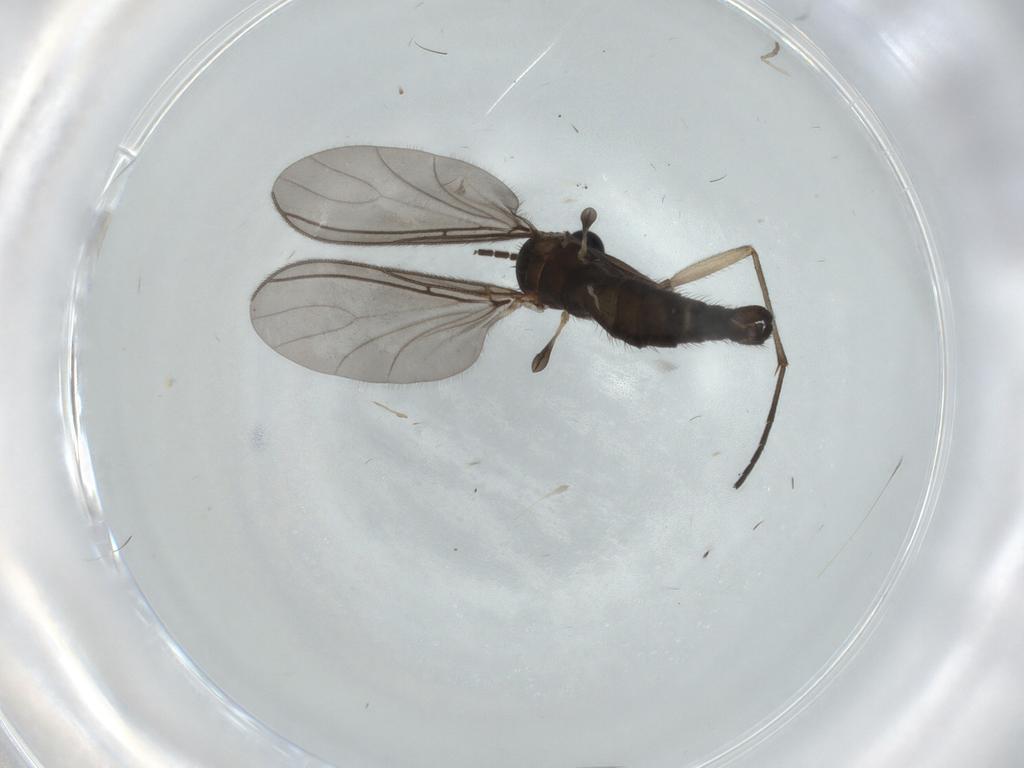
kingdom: Animalia
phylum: Arthropoda
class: Insecta
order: Diptera
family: Sciaridae
